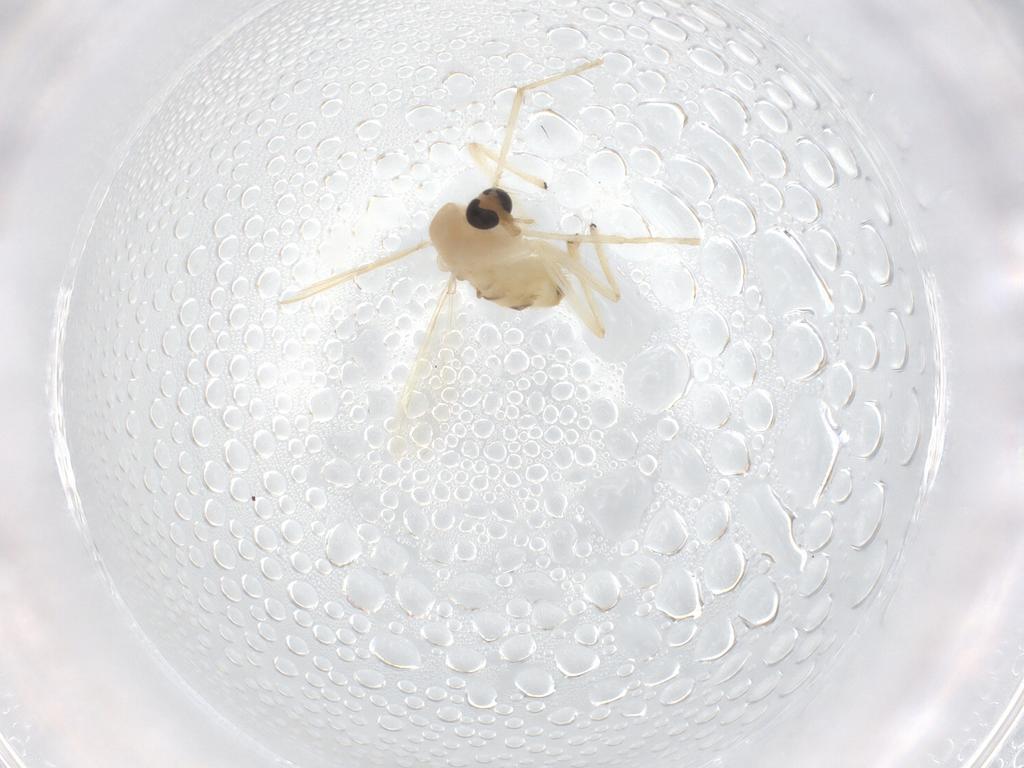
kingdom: Animalia
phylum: Arthropoda
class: Insecta
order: Diptera
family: Chironomidae
